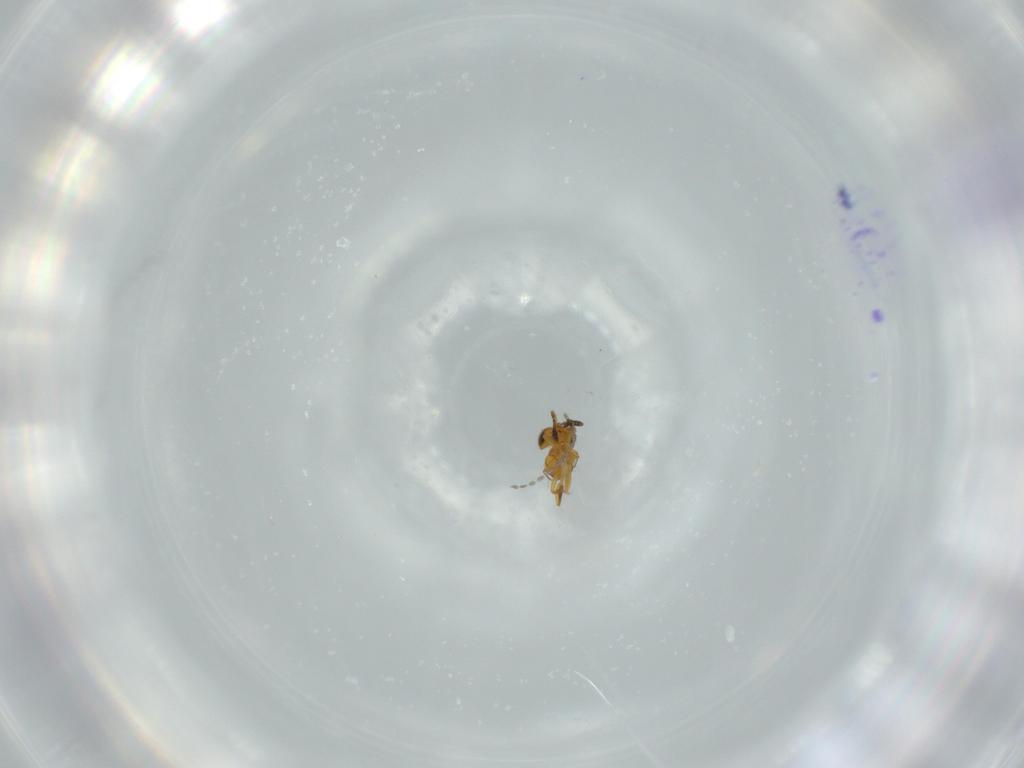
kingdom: Animalia
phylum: Arthropoda
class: Insecta
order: Hymenoptera
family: Scelionidae
